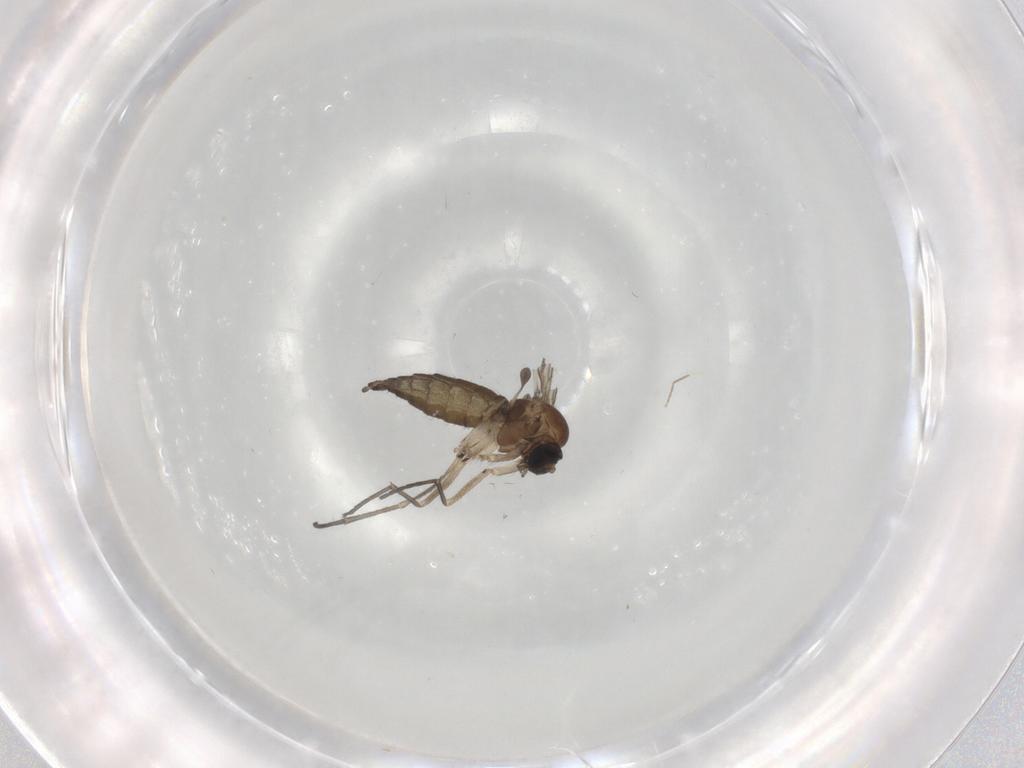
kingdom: Animalia
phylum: Arthropoda
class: Insecta
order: Diptera
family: Sciaridae
